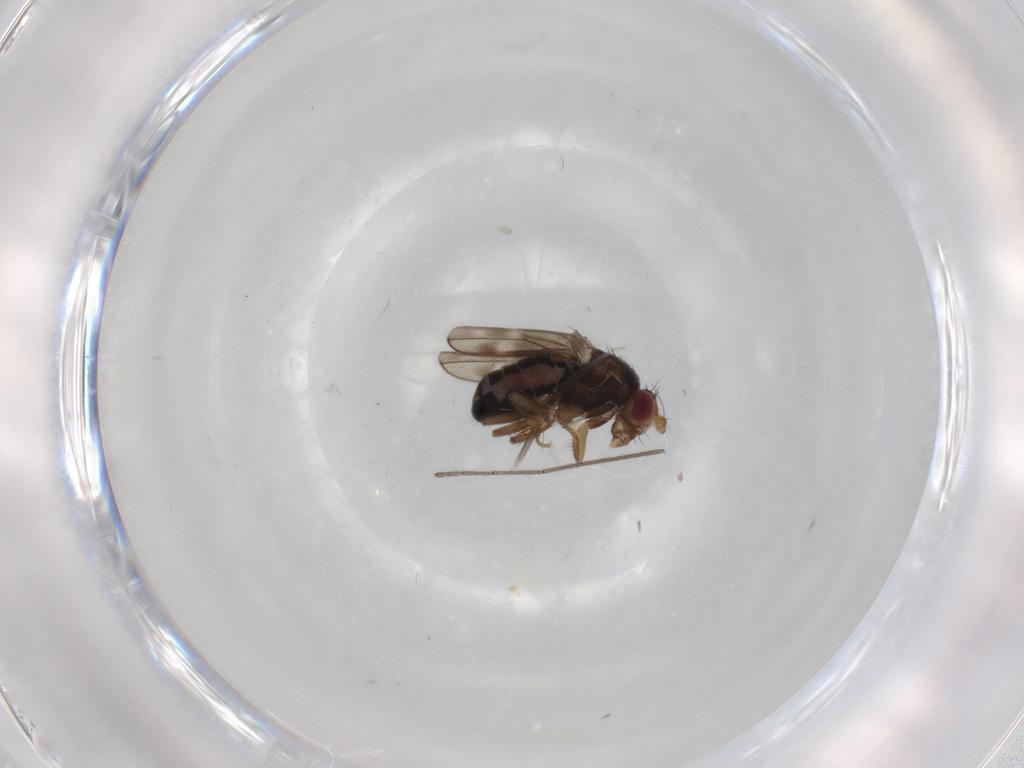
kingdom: Animalia
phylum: Arthropoda
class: Insecta
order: Diptera
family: Sphaeroceridae
